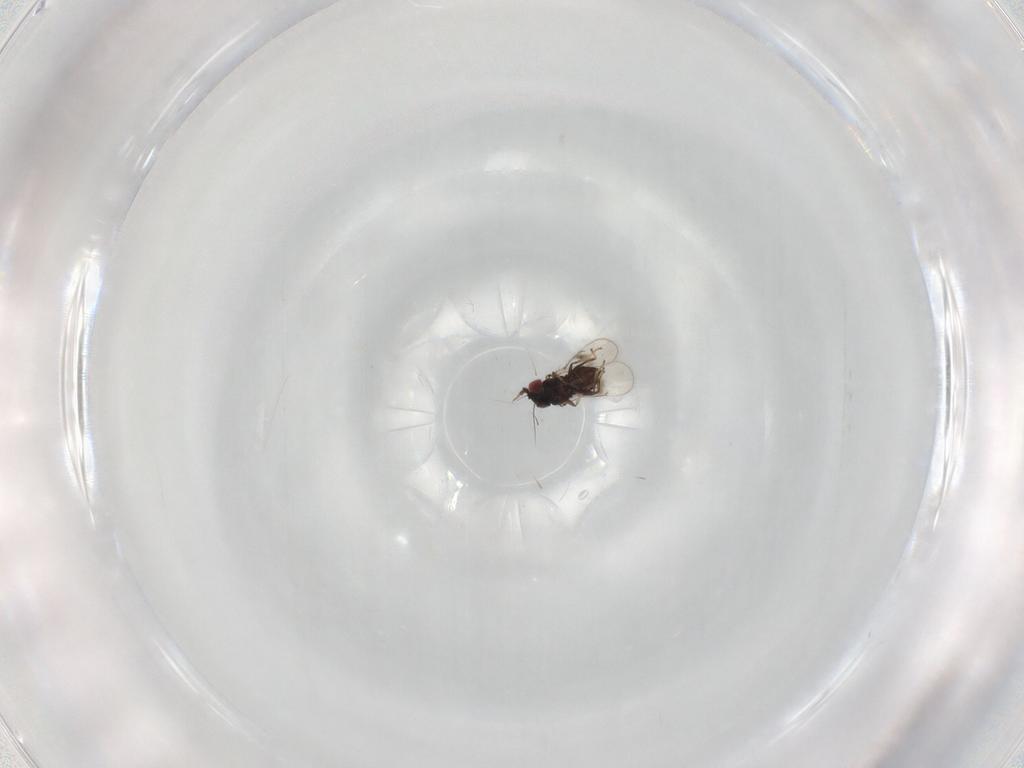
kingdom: Animalia
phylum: Arthropoda
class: Insecta
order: Hymenoptera
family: Eulophidae
